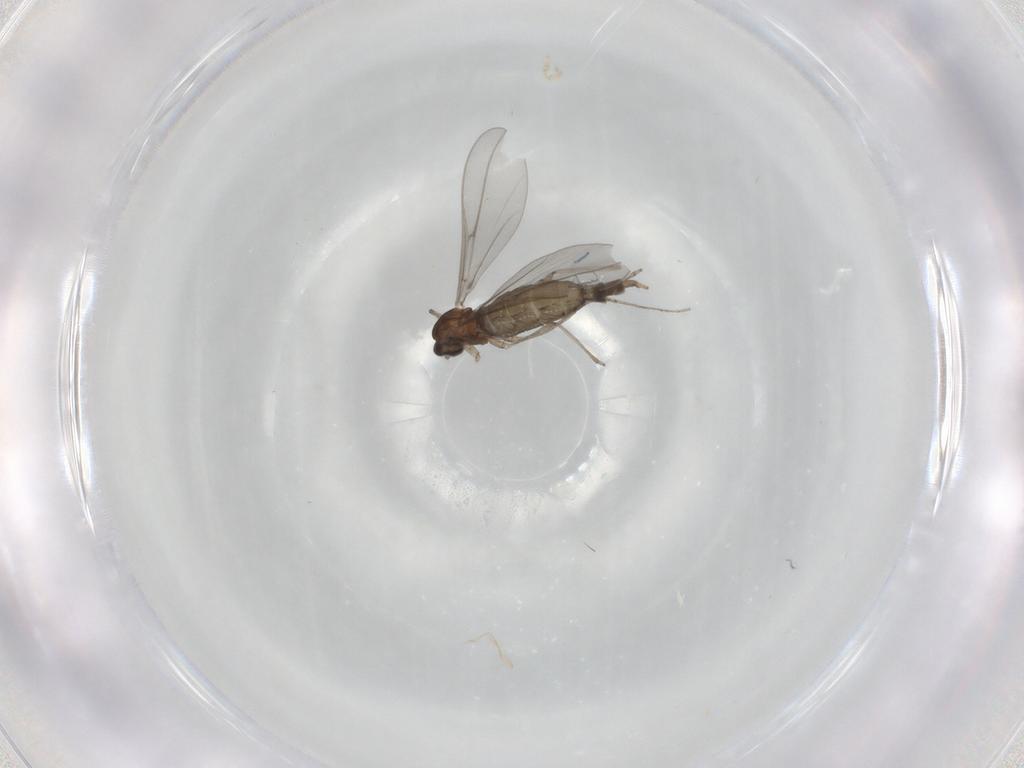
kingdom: Animalia
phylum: Arthropoda
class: Insecta
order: Diptera
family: Cecidomyiidae
